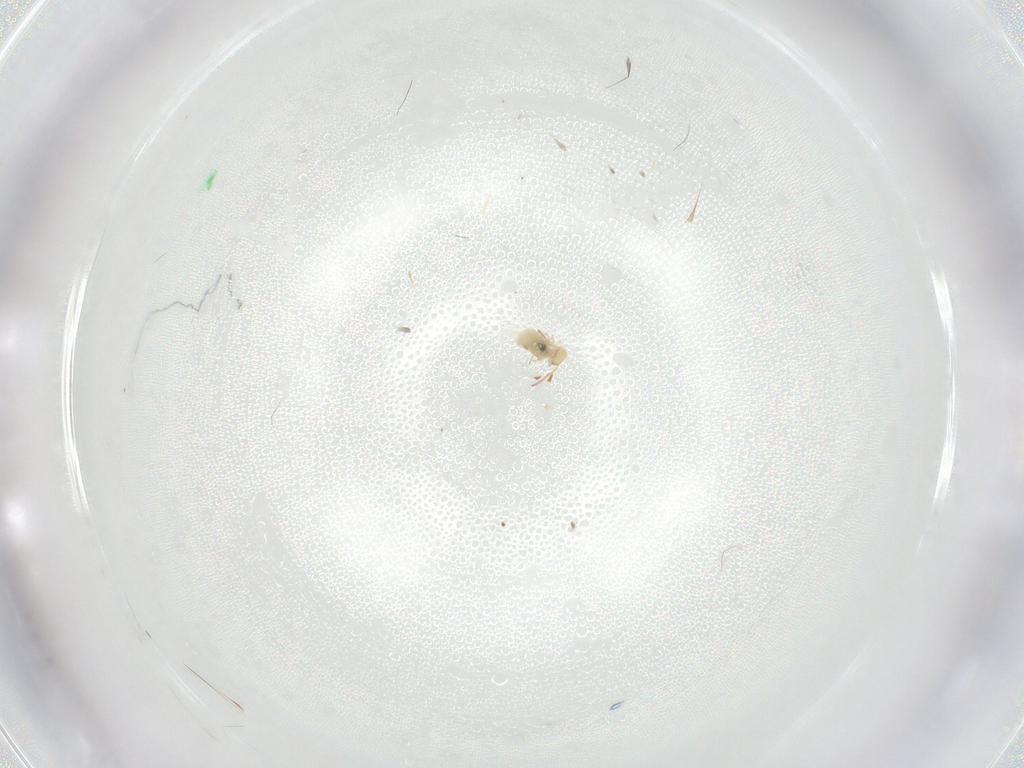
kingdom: Animalia
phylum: Arthropoda
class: Collembola
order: Symphypleona
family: Bourletiellidae
